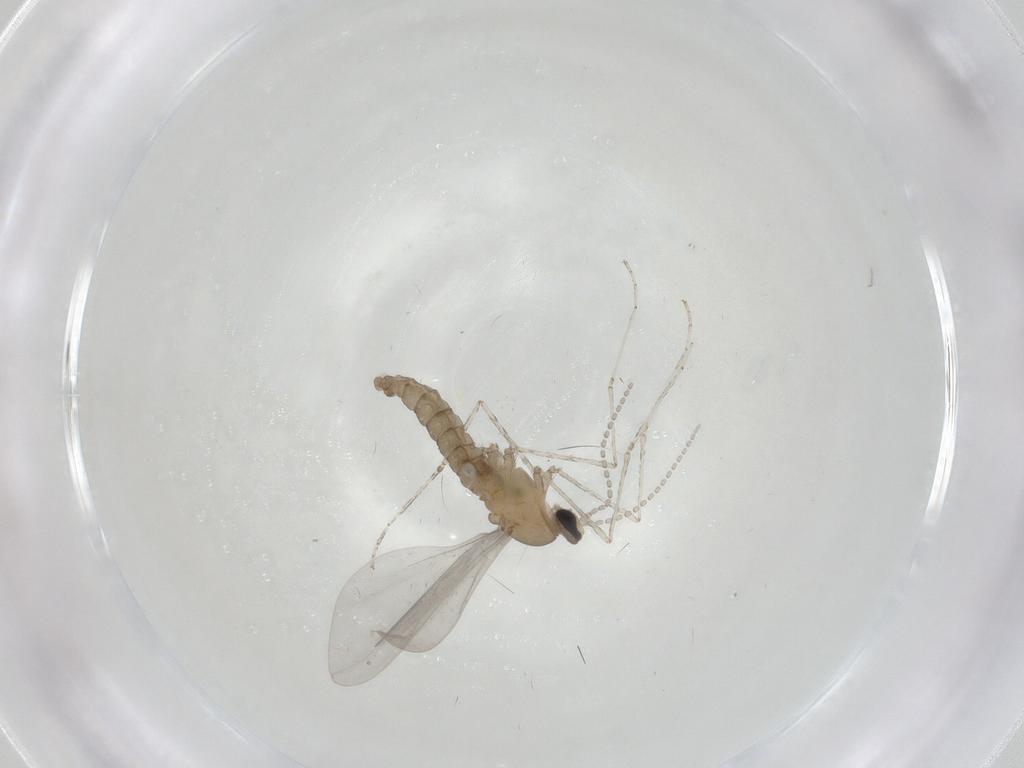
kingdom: Animalia
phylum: Arthropoda
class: Insecta
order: Diptera
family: Cecidomyiidae
